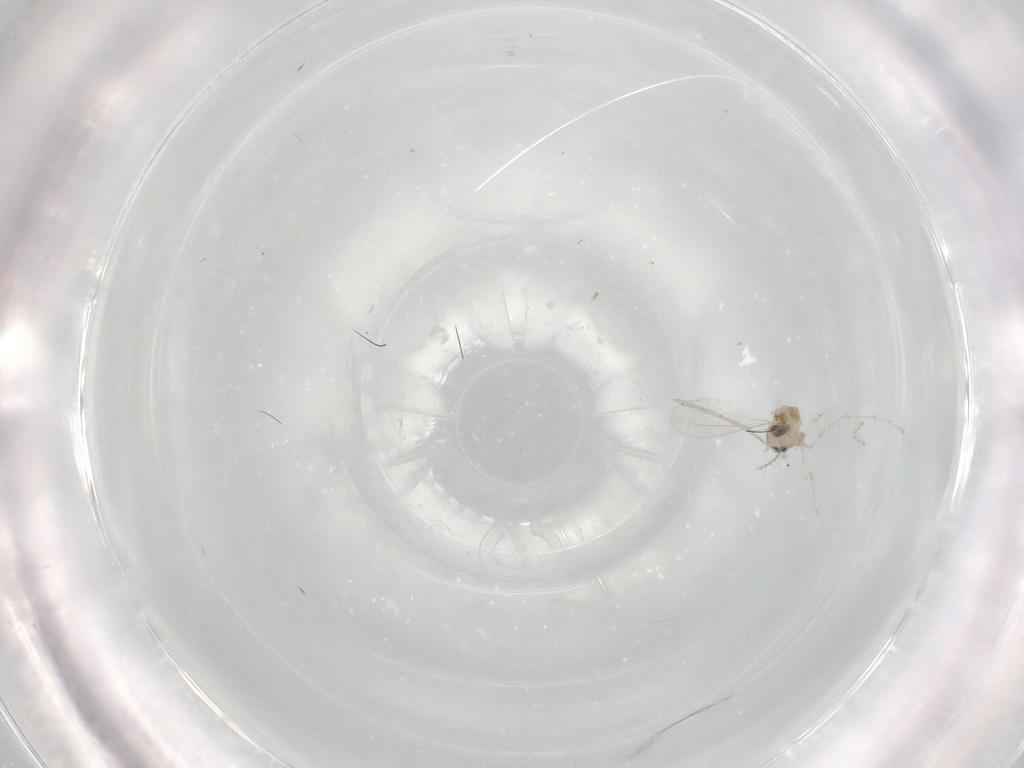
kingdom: Animalia
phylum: Arthropoda
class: Insecta
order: Diptera
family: Cecidomyiidae
